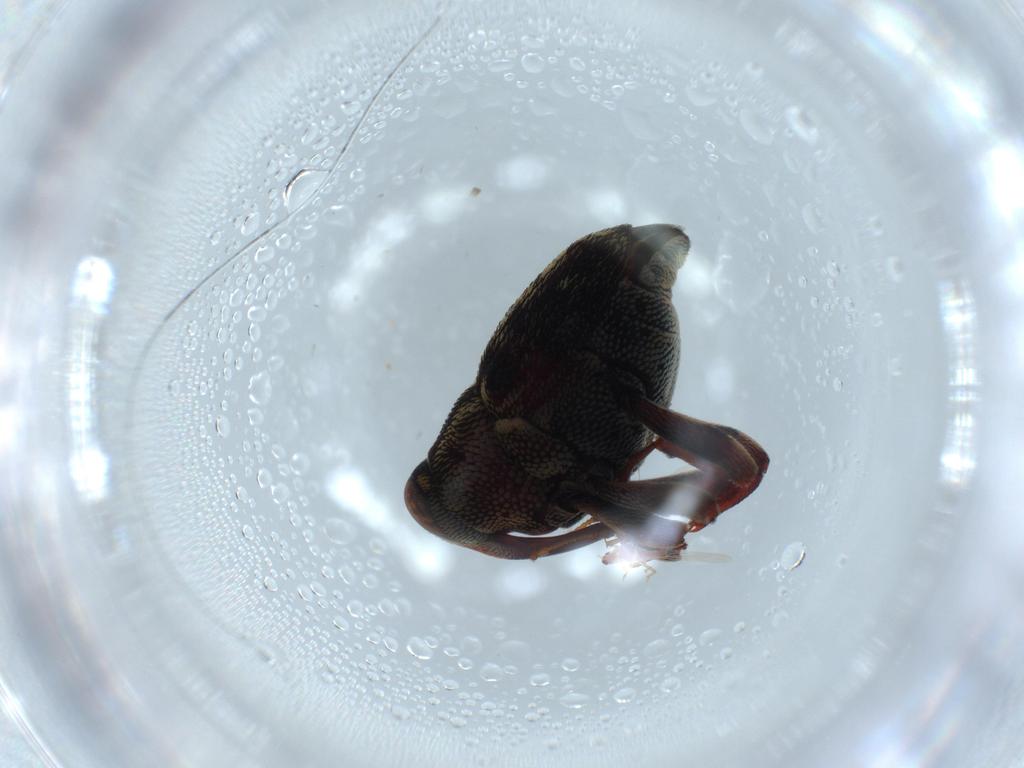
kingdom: Animalia
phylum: Arthropoda
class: Insecta
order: Coleoptera
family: Curculionidae
